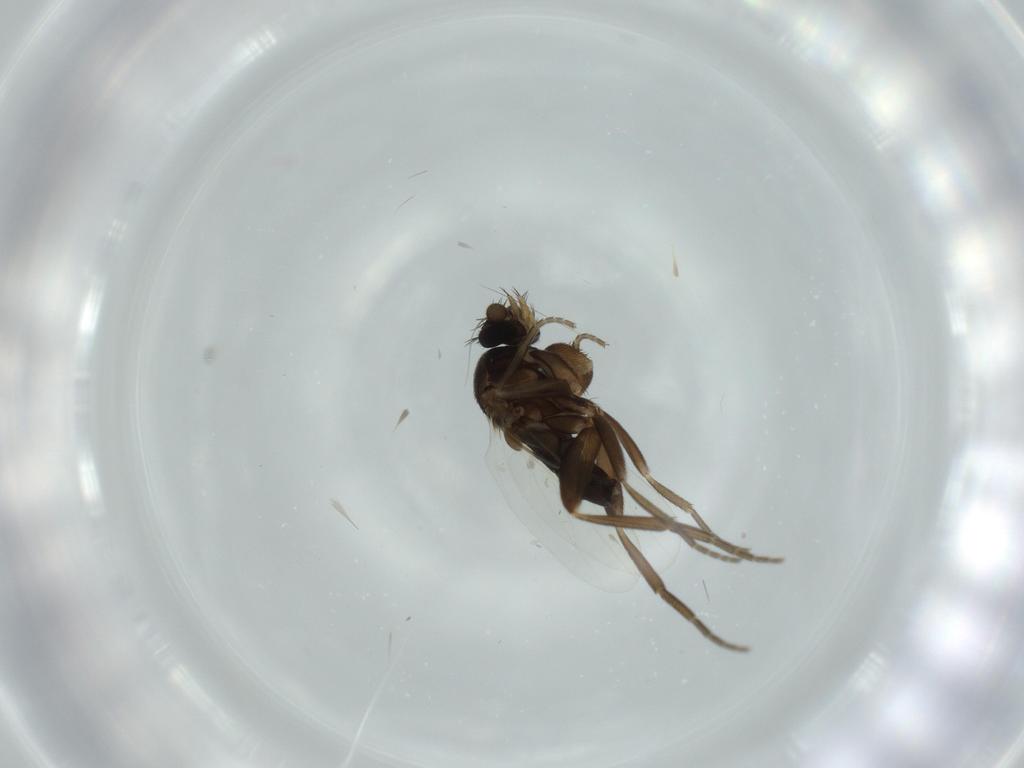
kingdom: Animalia
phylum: Arthropoda
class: Insecta
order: Diptera
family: Phoridae
